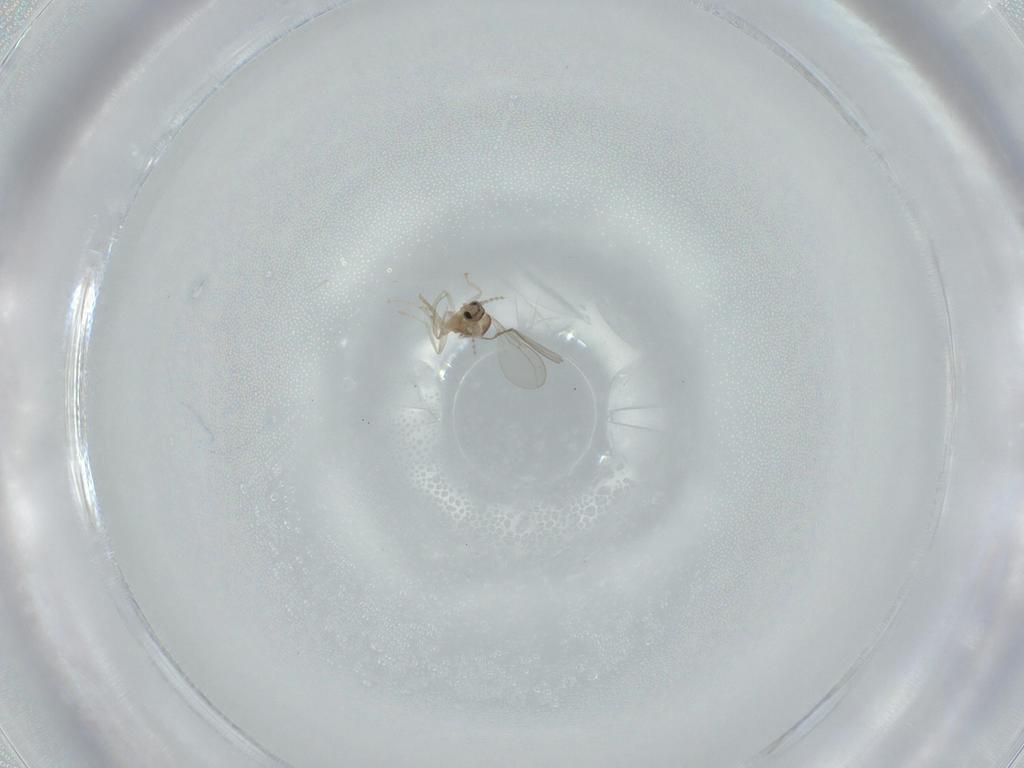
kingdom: Animalia
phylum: Arthropoda
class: Insecta
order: Diptera
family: Cecidomyiidae
